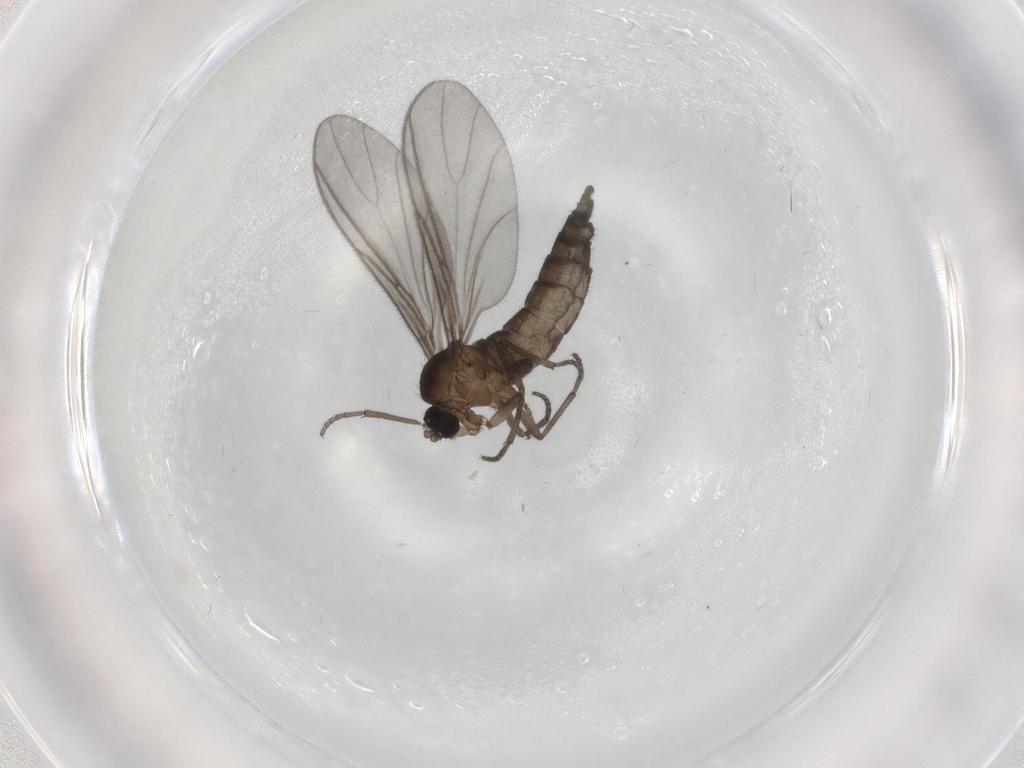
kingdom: Animalia
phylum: Arthropoda
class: Insecta
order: Diptera
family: Sciaridae
